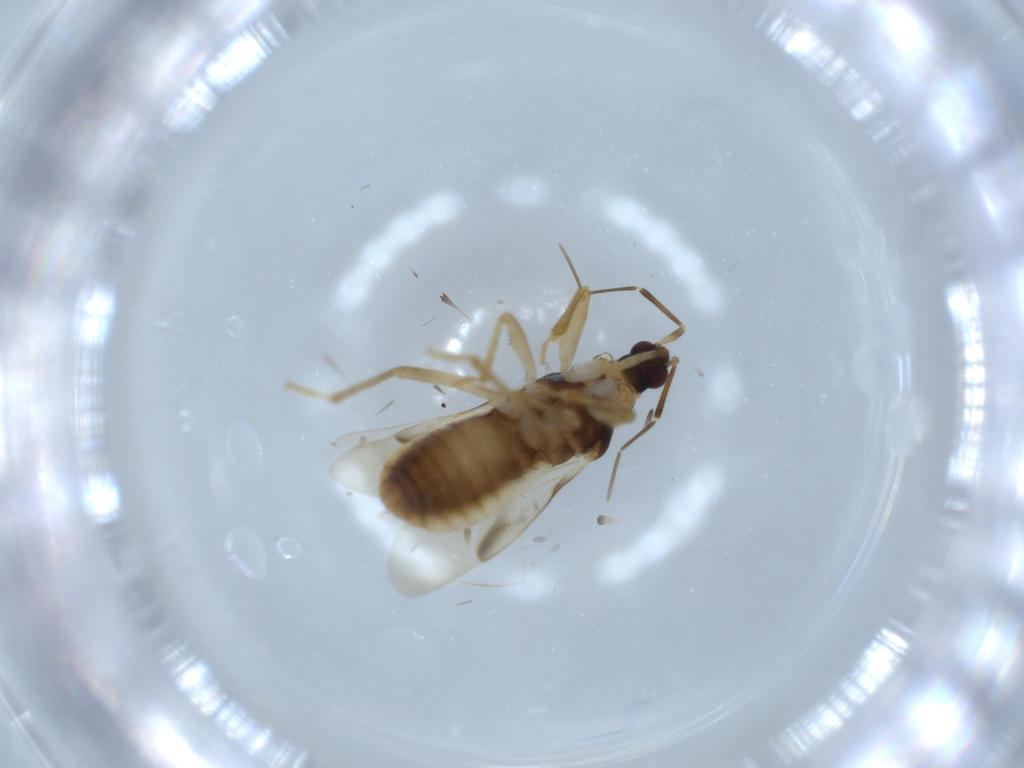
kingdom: Animalia
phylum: Arthropoda
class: Insecta
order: Hemiptera
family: Nabidae
